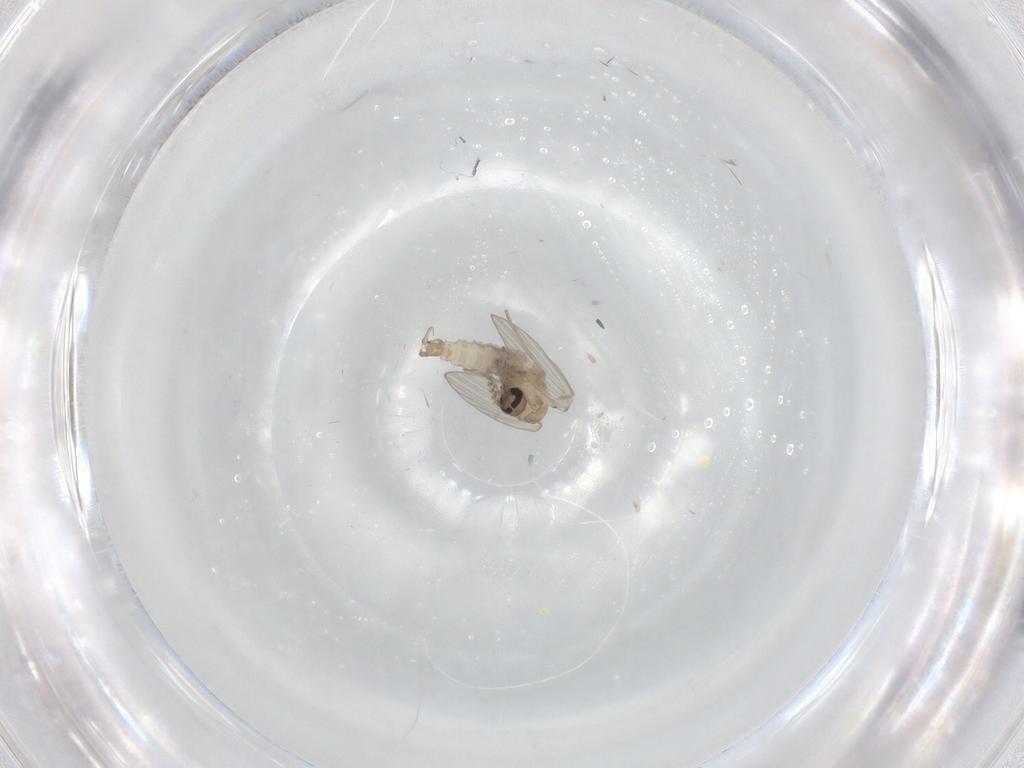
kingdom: Animalia
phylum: Arthropoda
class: Insecta
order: Diptera
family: Psychodidae
